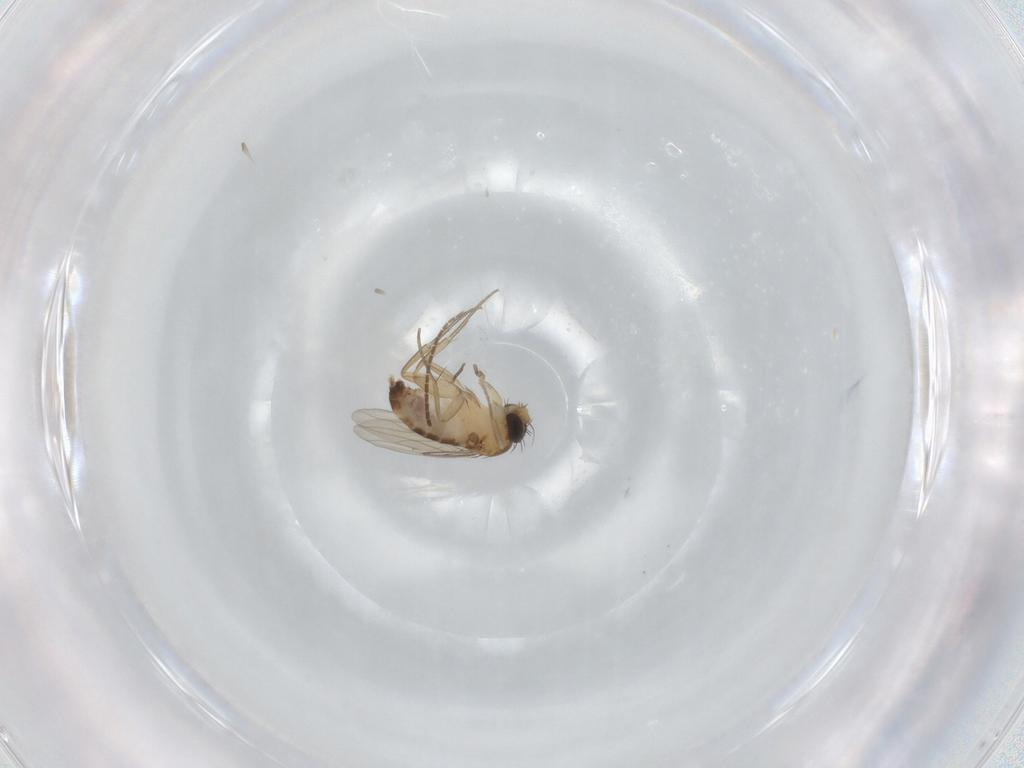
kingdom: Animalia
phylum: Arthropoda
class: Insecta
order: Diptera
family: Phoridae
